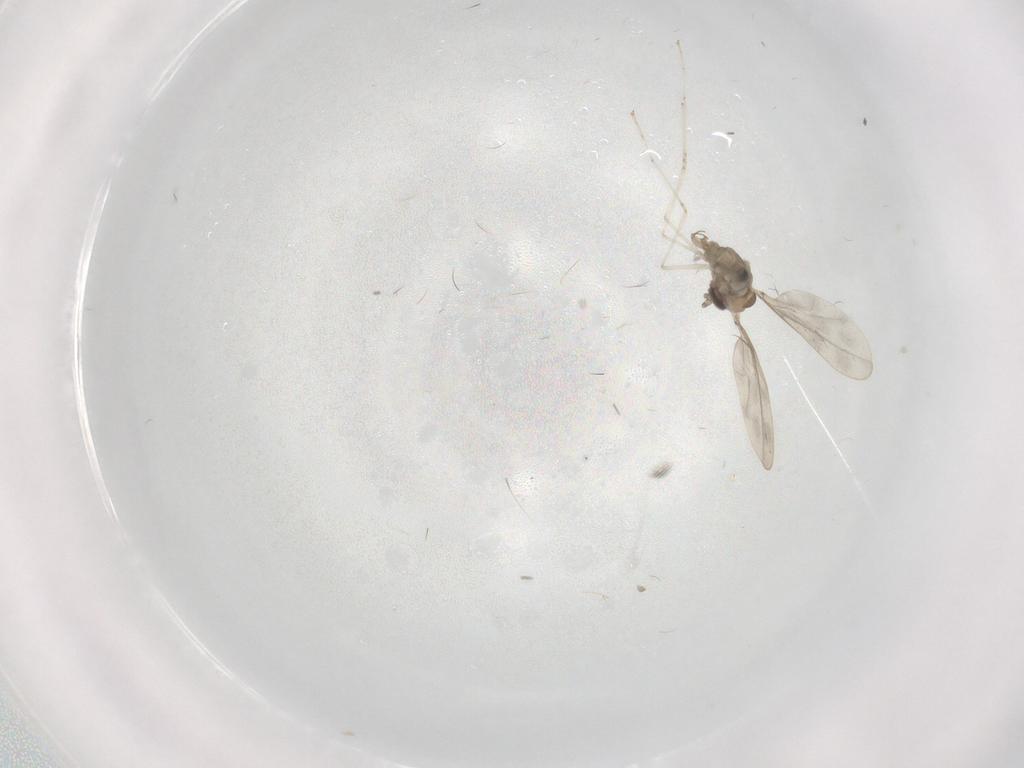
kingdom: Animalia
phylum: Arthropoda
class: Insecta
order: Diptera
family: Cecidomyiidae
